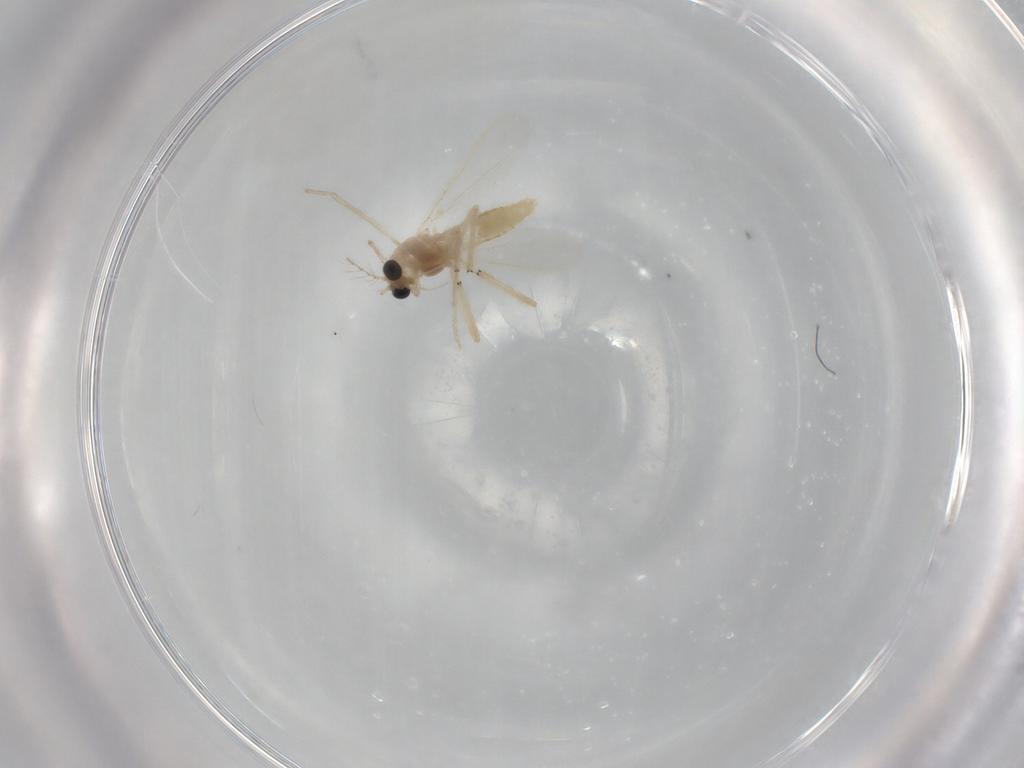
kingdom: Animalia
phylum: Arthropoda
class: Insecta
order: Diptera
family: Chironomidae
